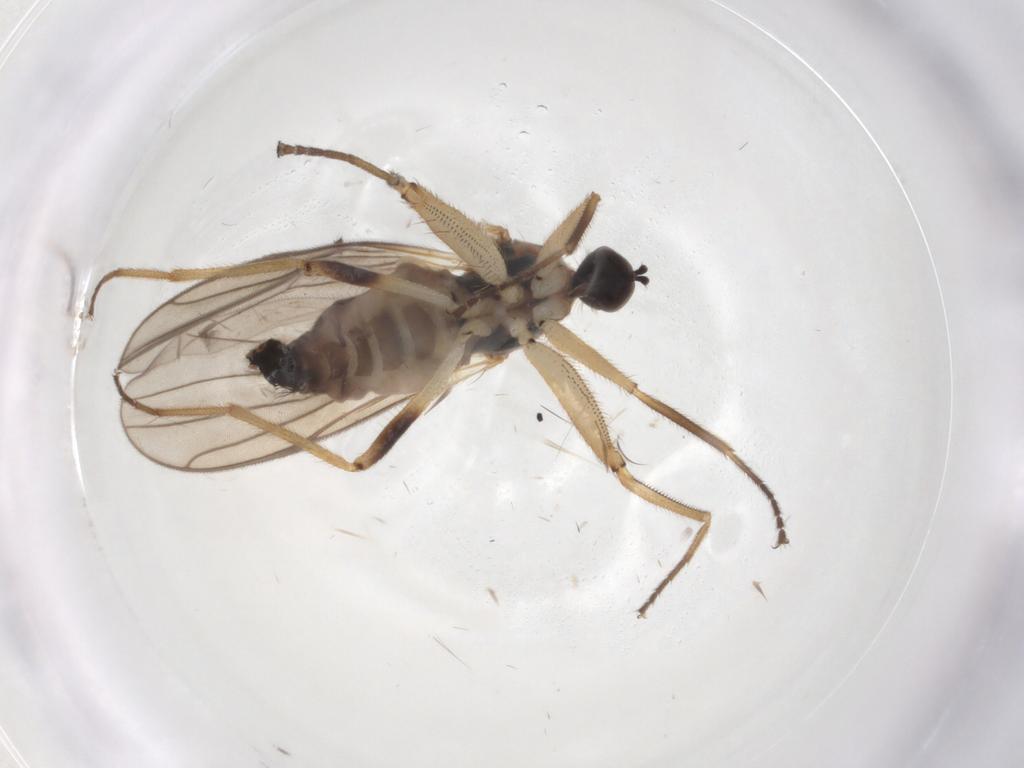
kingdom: Animalia
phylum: Arthropoda
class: Insecta
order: Diptera
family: Hybotidae
